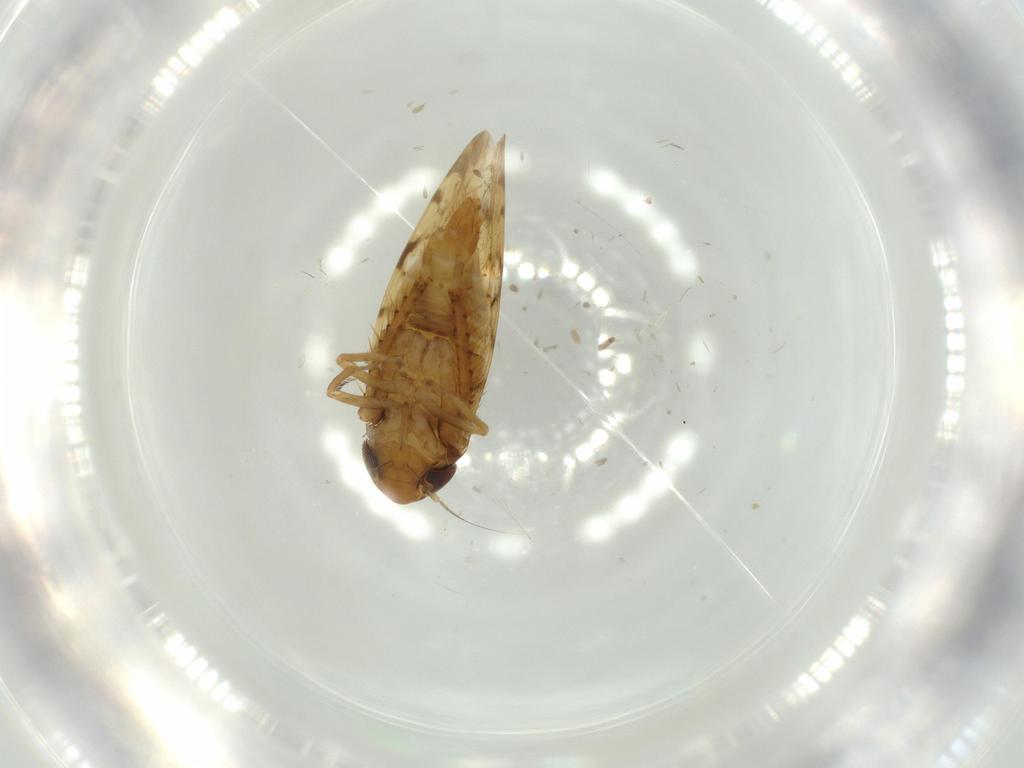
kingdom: Animalia
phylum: Arthropoda
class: Insecta
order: Hemiptera
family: Cicadellidae
